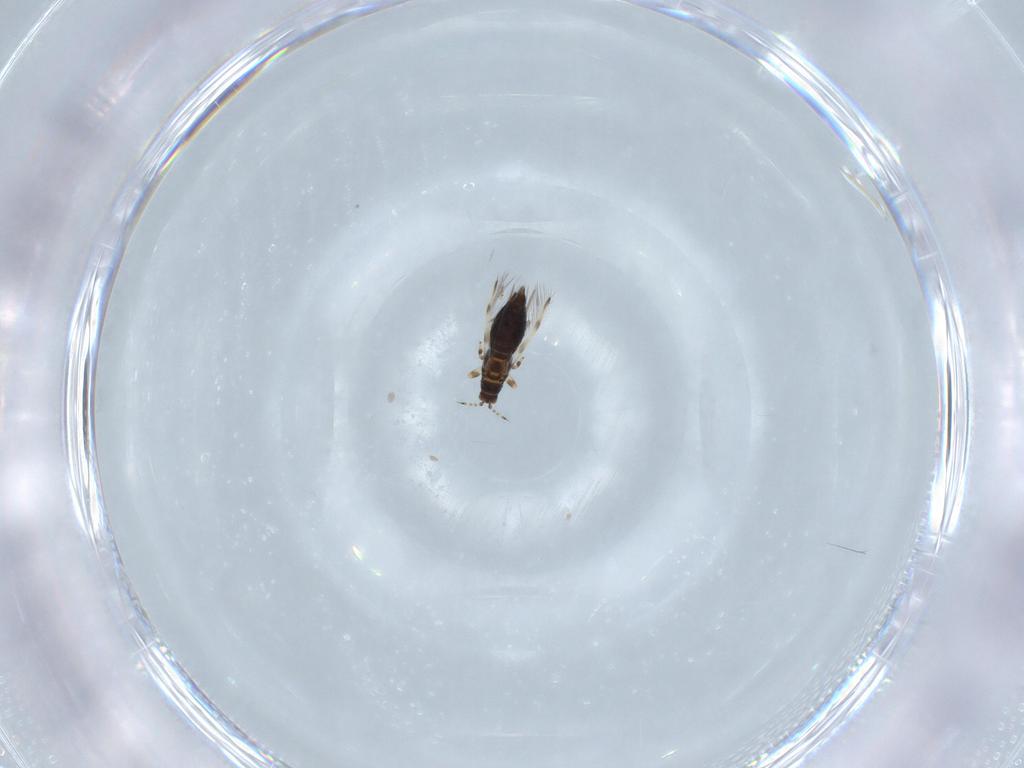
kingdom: Animalia
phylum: Arthropoda
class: Insecta
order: Thysanoptera
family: Thripidae
